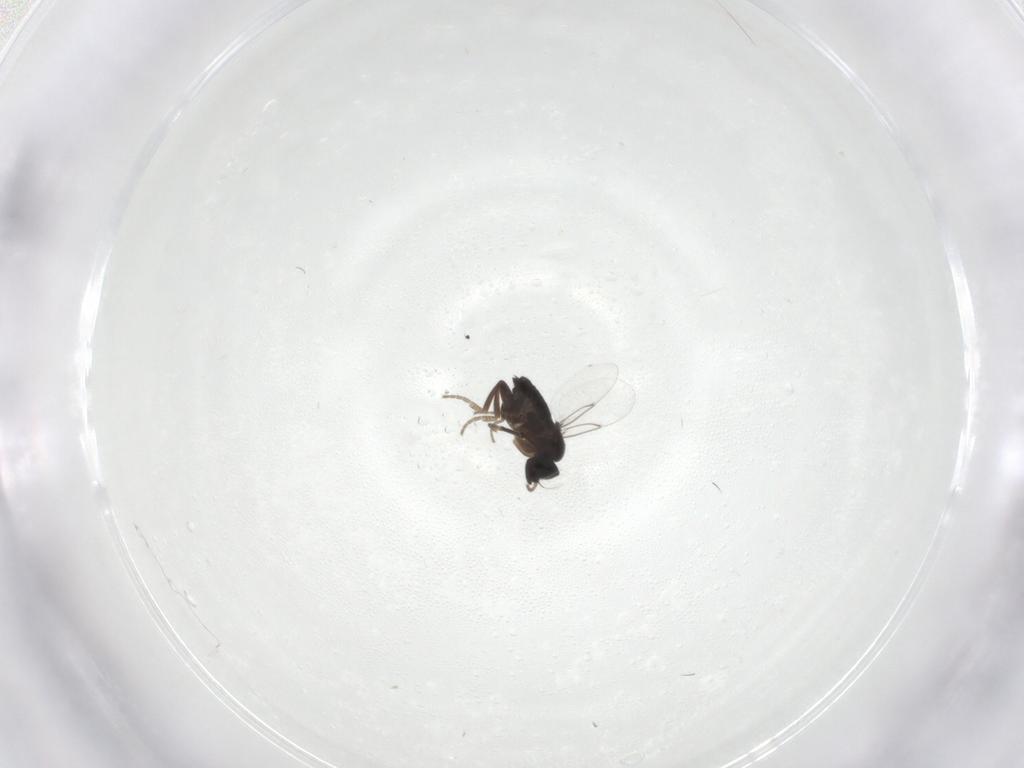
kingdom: Animalia
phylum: Arthropoda
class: Insecta
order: Diptera
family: Phoridae
